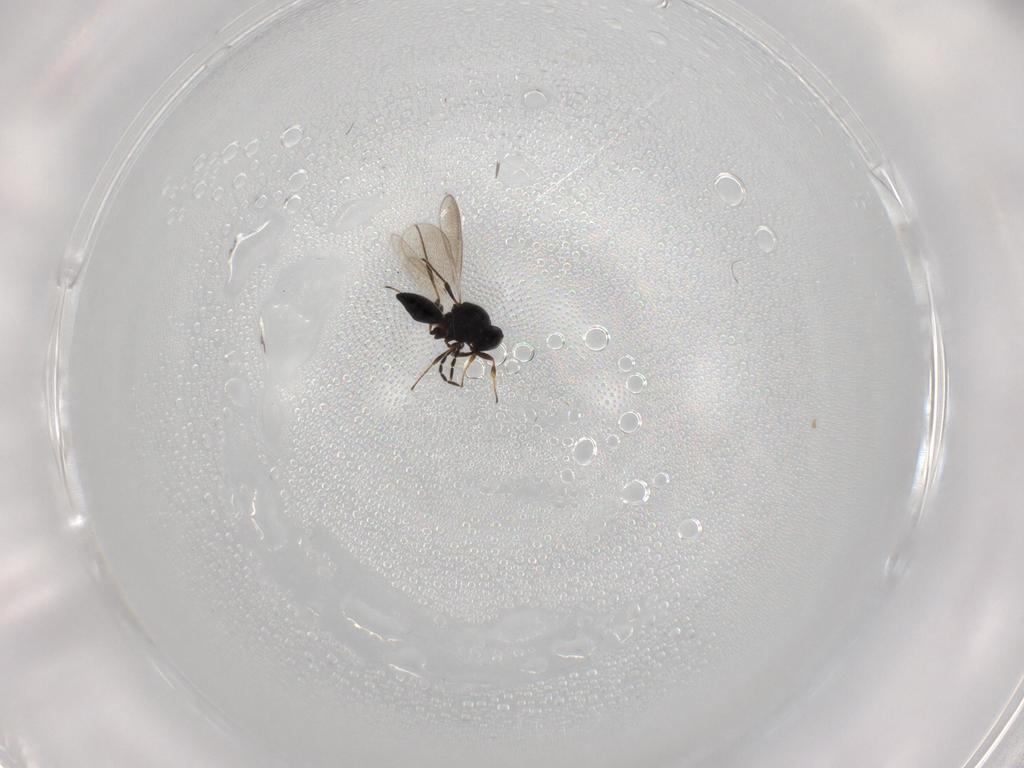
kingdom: Animalia
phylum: Arthropoda
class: Insecta
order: Hymenoptera
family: Platygastridae
